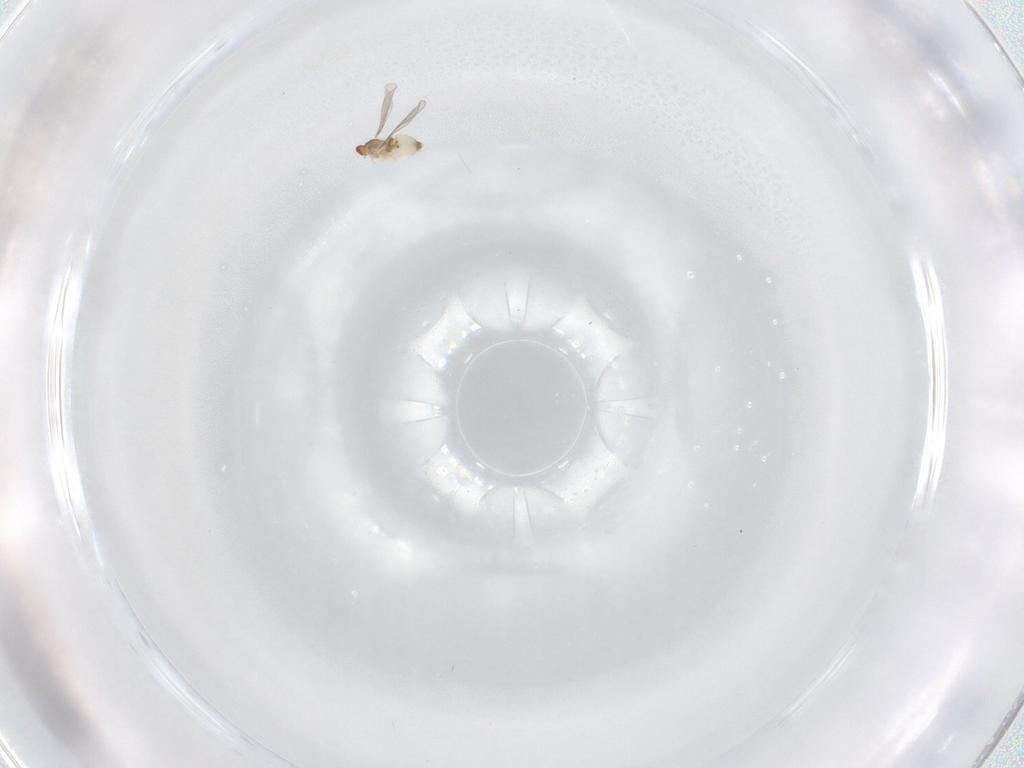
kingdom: Animalia
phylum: Arthropoda
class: Insecta
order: Diptera
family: Cecidomyiidae
